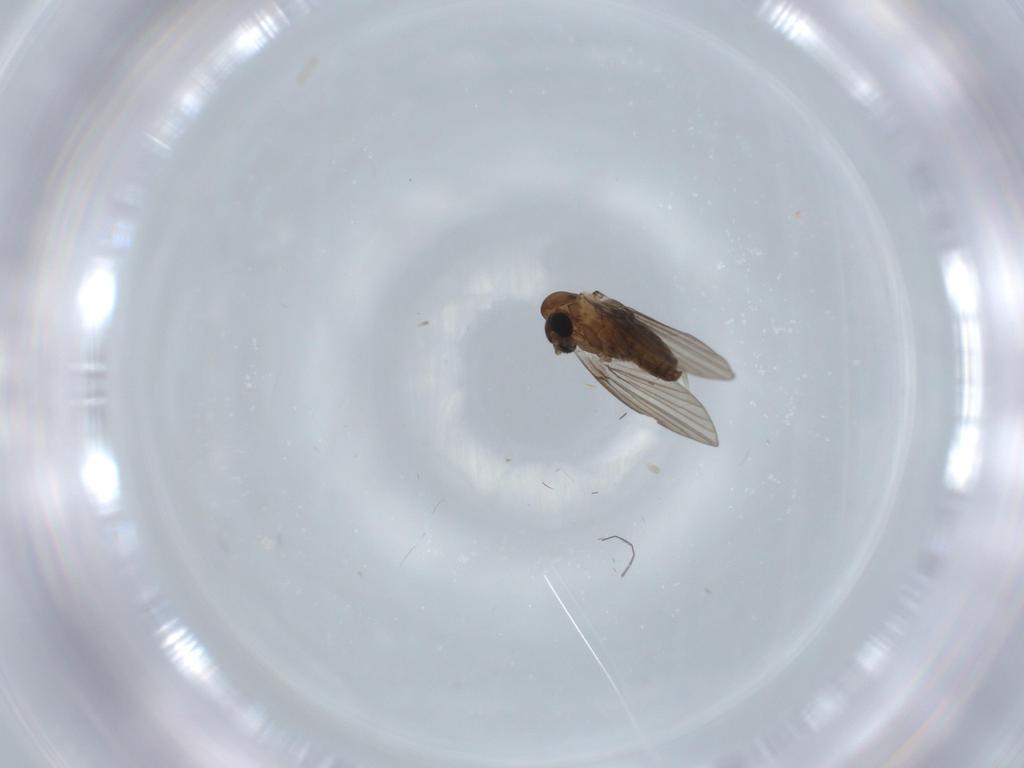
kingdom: Animalia
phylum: Arthropoda
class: Insecta
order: Diptera
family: Psychodidae
